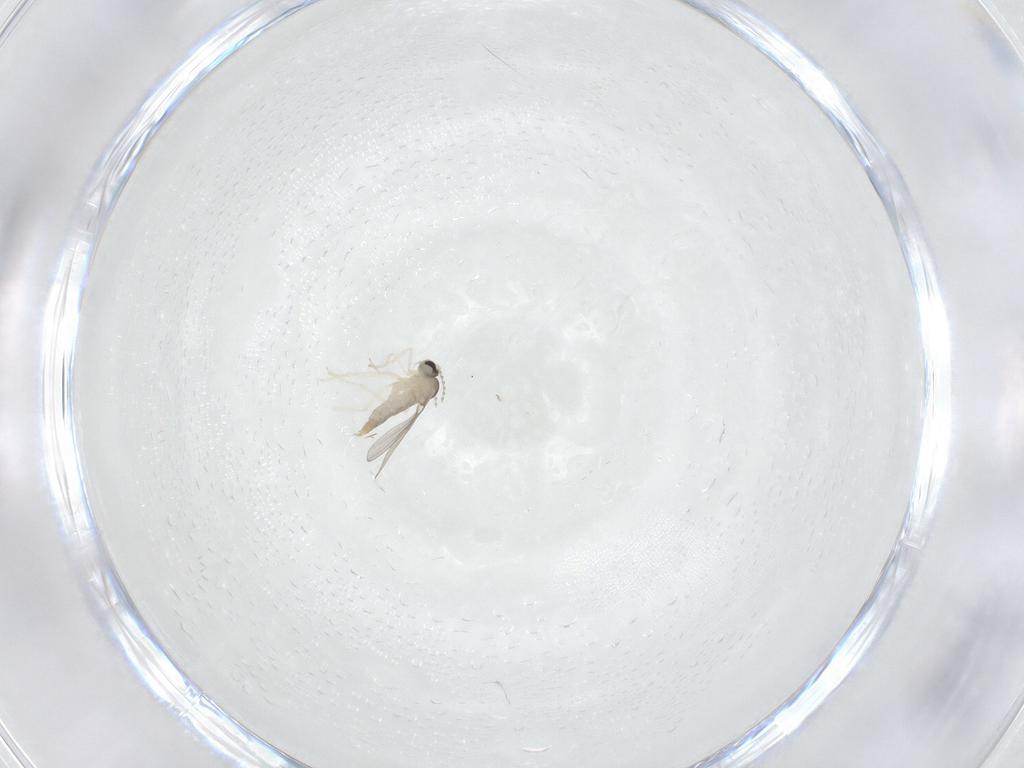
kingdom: Animalia
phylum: Arthropoda
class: Insecta
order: Diptera
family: Cecidomyiidae
